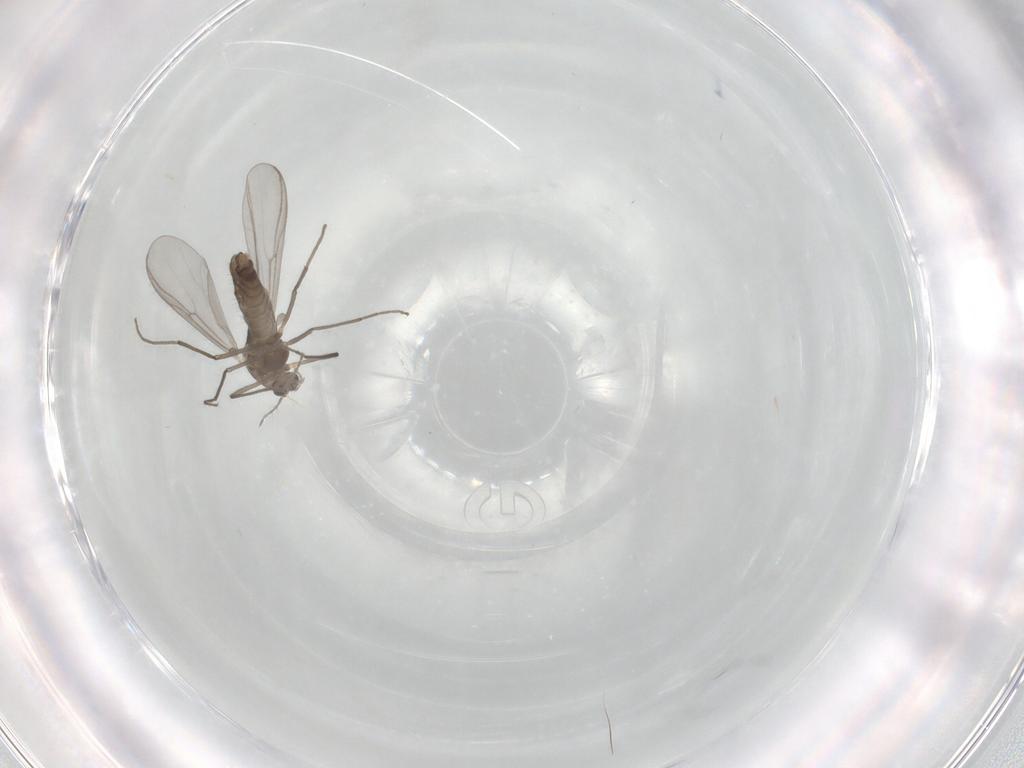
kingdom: Animalia
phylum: Arthropoda
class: Insecta
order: Diptera
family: Chironomidae
